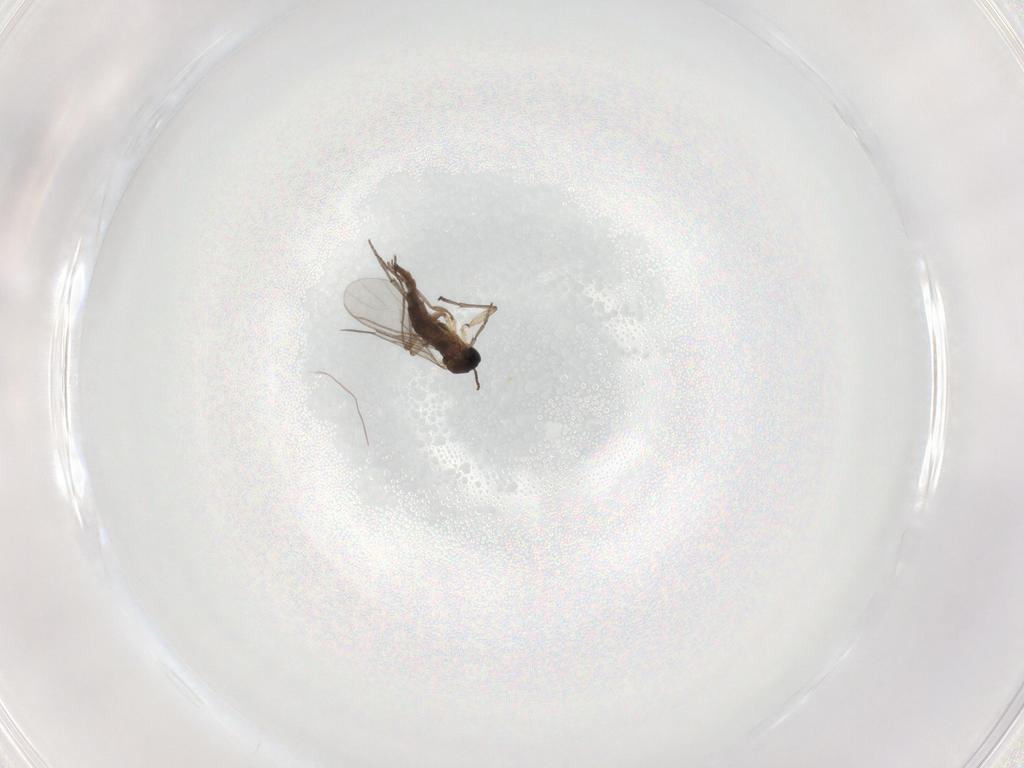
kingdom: Animalia
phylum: Arthropoda
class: Insecta
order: Diptera
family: Sciaridae
